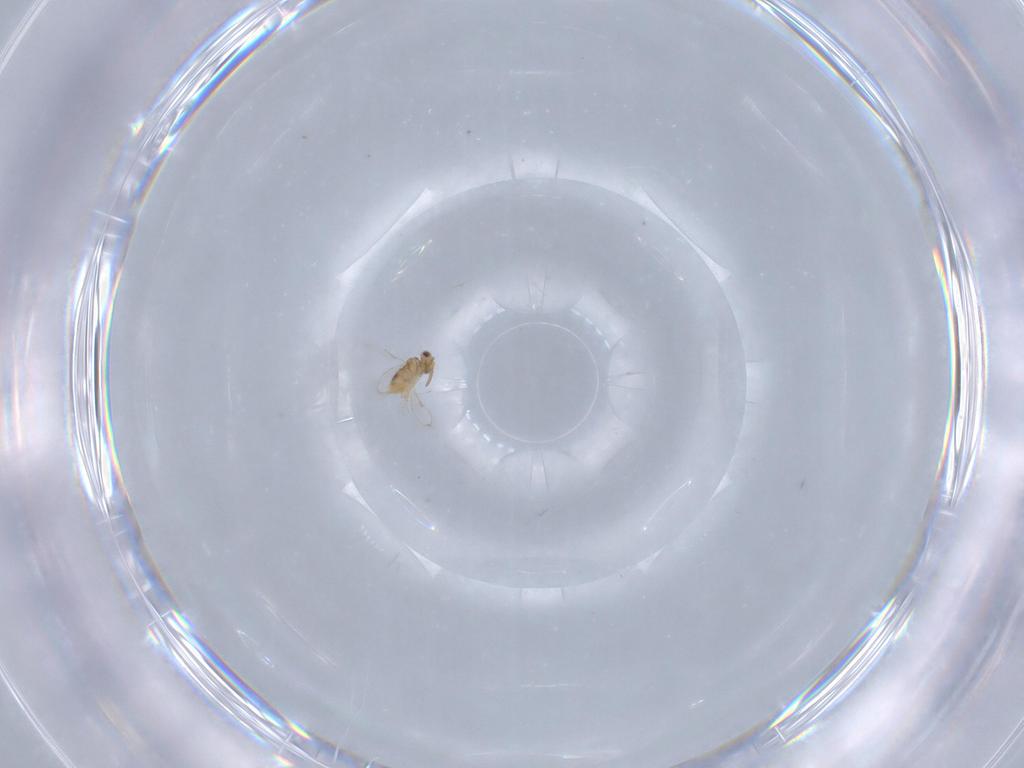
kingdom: Animalia
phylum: Arthropoda
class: Insecta
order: Hymenoptera
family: Aphelinidae
